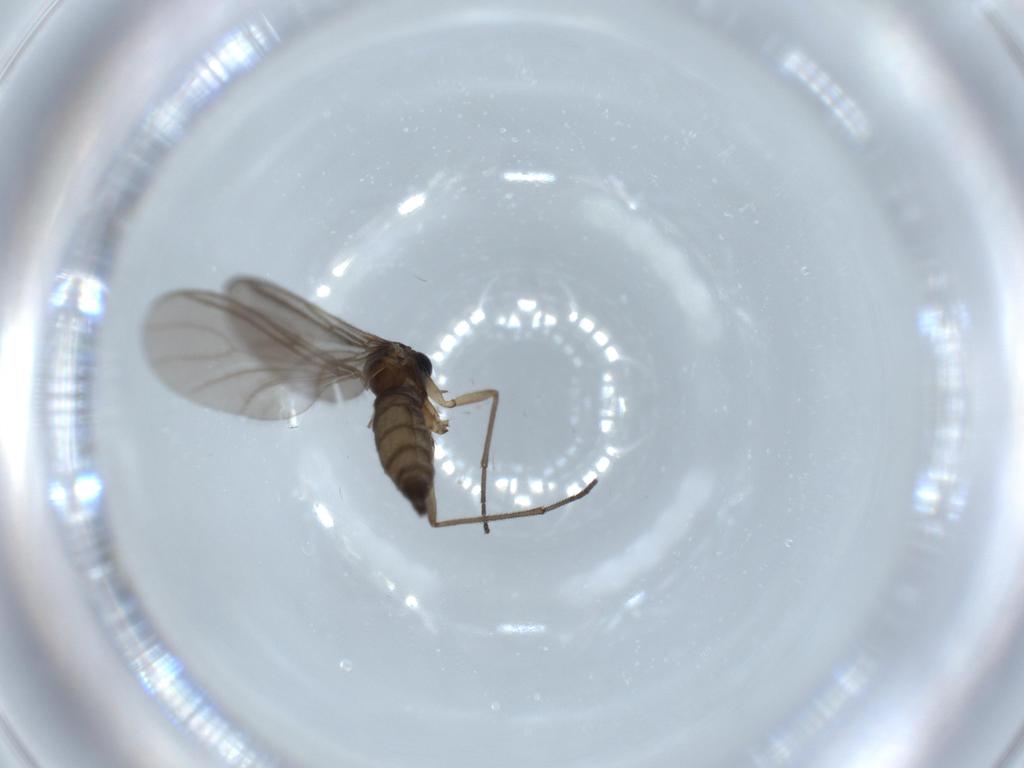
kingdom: Animalia
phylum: Arthropoda
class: Insecta
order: Diptera
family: Sciaridae
